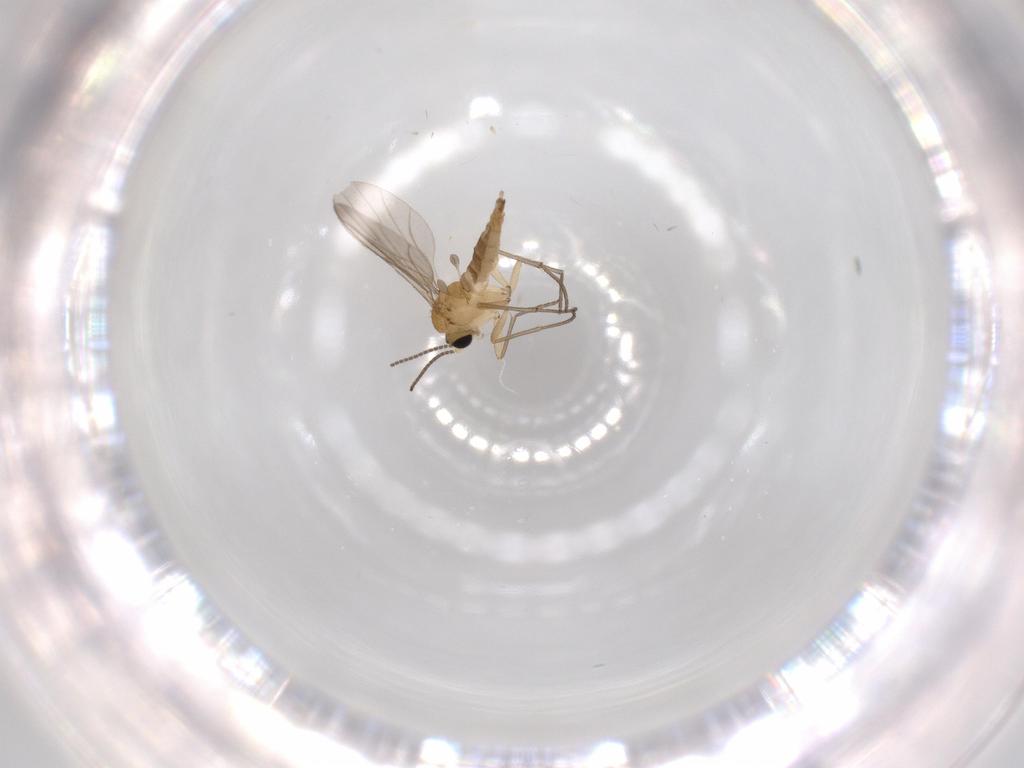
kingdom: Animalia
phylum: Arthropoda
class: Insecta
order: Diptera
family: Sciaridae
